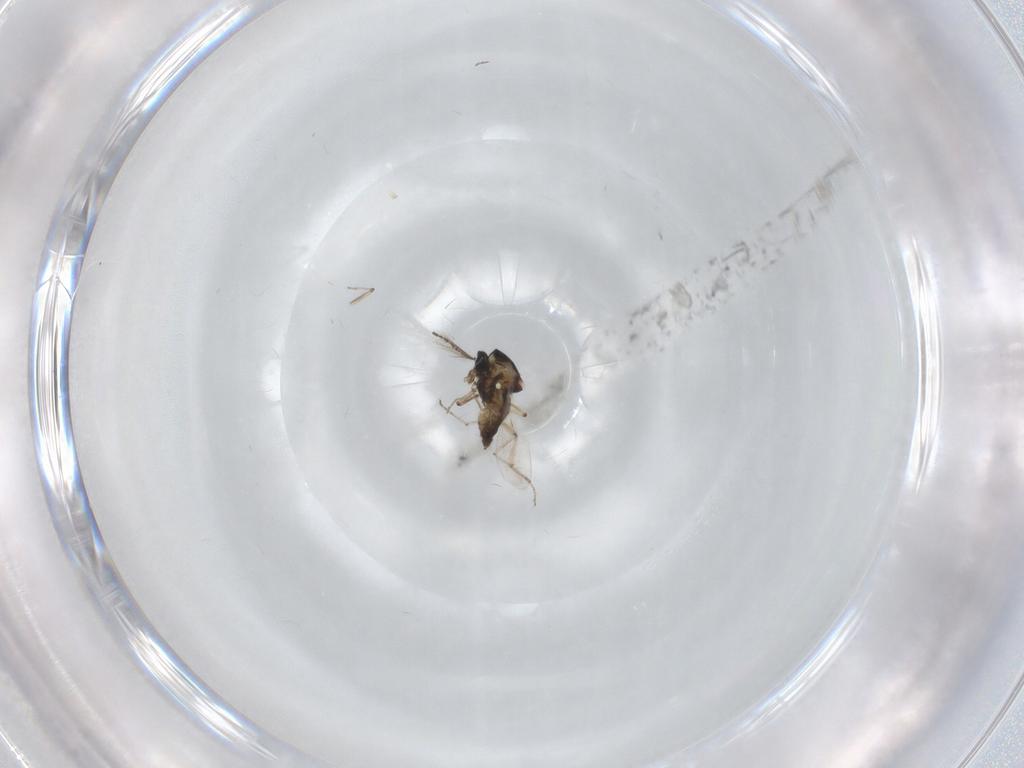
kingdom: Animalia
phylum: Arthropoda
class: Insecta
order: Diptera
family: Ceratopogonidae
